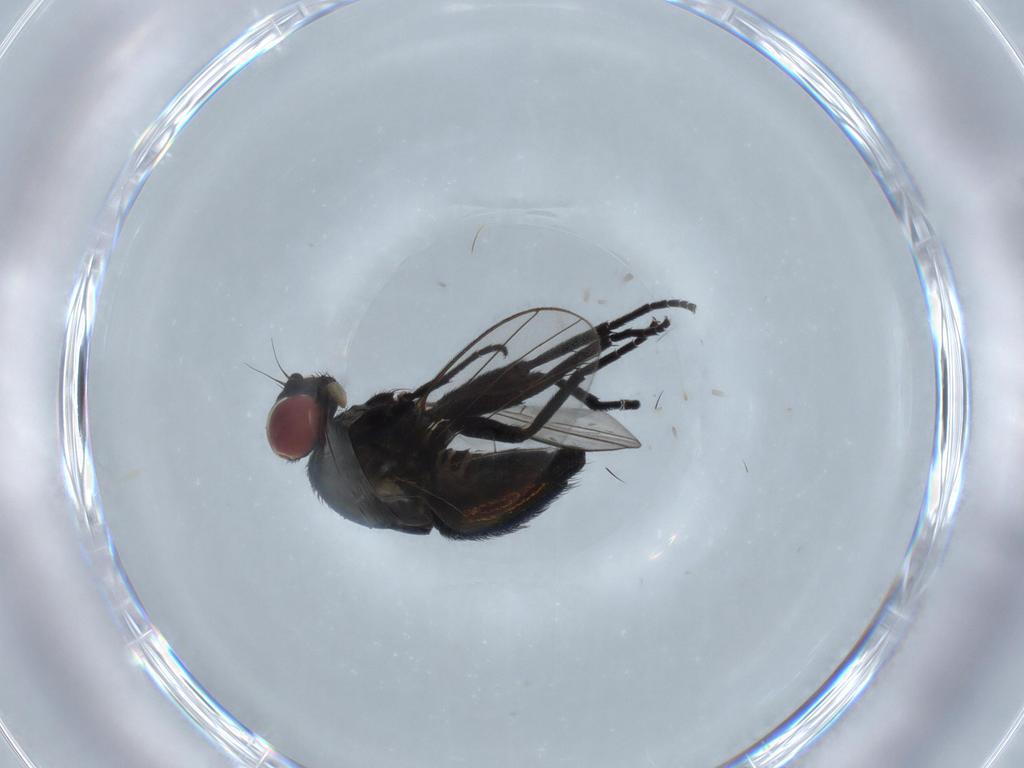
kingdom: Animalia
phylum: Arthropoda
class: Insecta
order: Diptera
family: Agromyzidae
